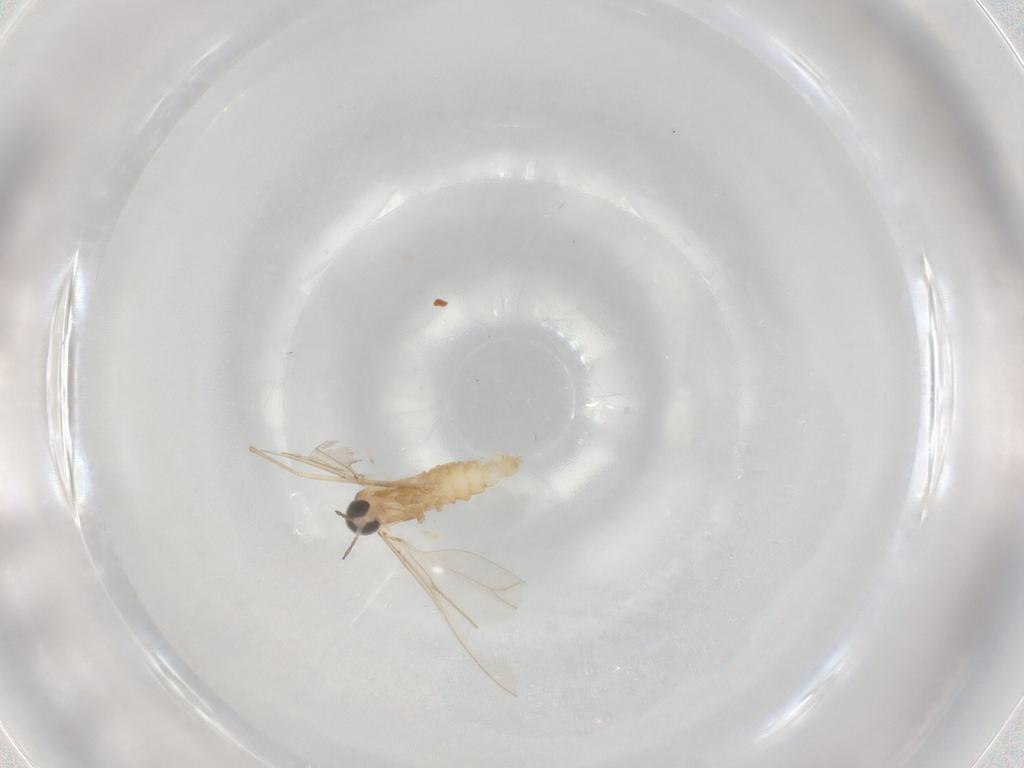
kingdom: Animalia
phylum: Arthropoda
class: Insecta
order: Diptera
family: Cecidomyiidae
